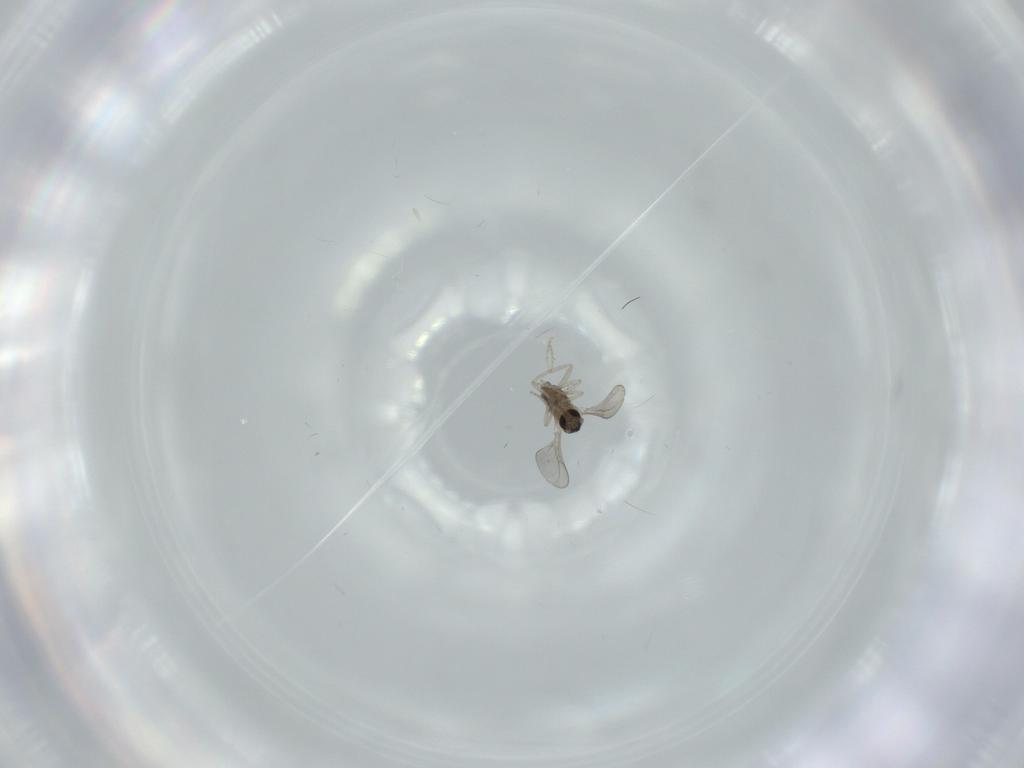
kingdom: Animalia
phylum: Arthropoda
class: Insecta
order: Diptera
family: Cecidomyiidae
